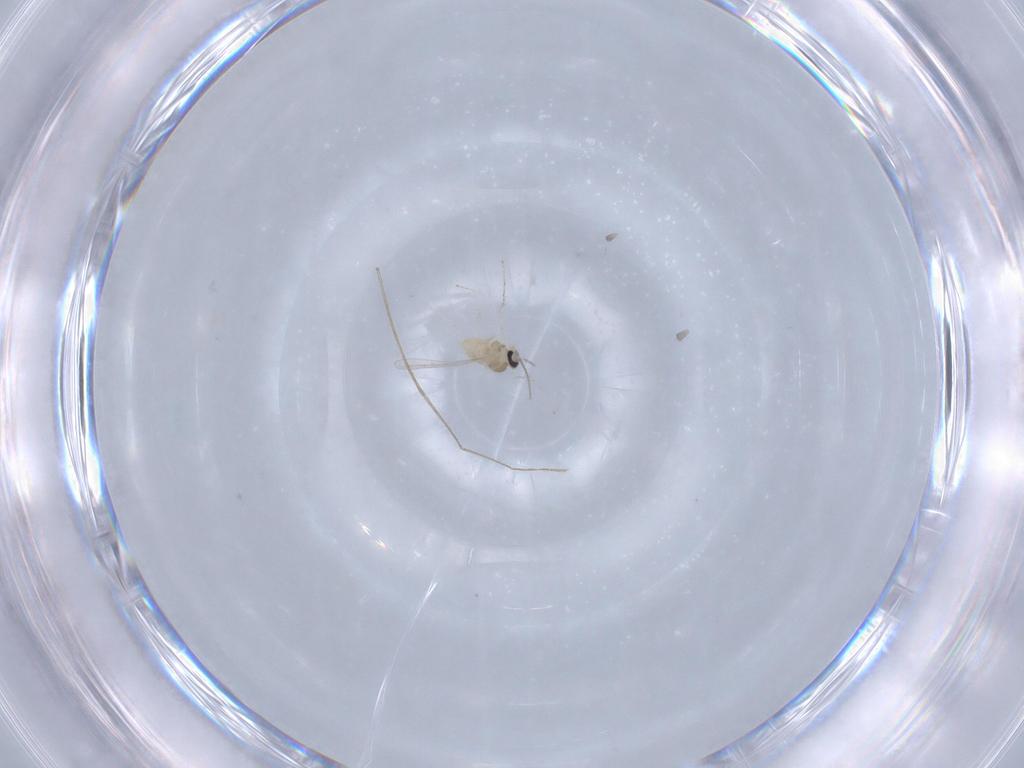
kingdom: Animalia
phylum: Arthropoda
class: Insecta
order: Diptera
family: Cecidomyiidae
